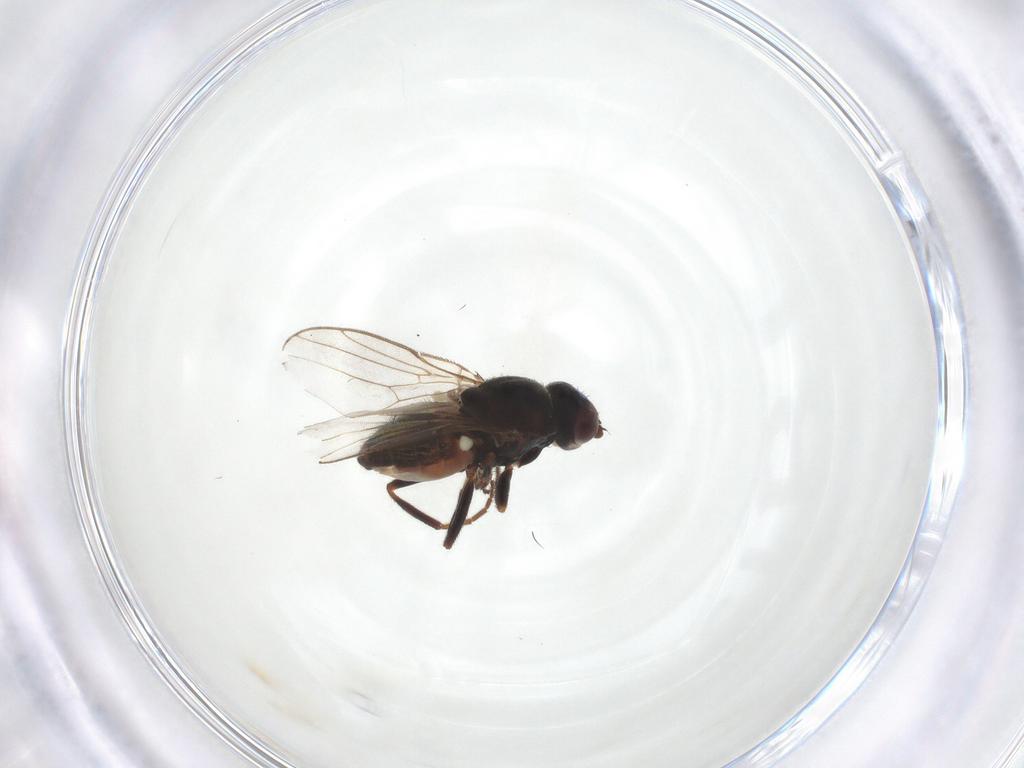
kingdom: Animalia
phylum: Arthropoda
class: Insecta
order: Diptera
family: Chloropidae
